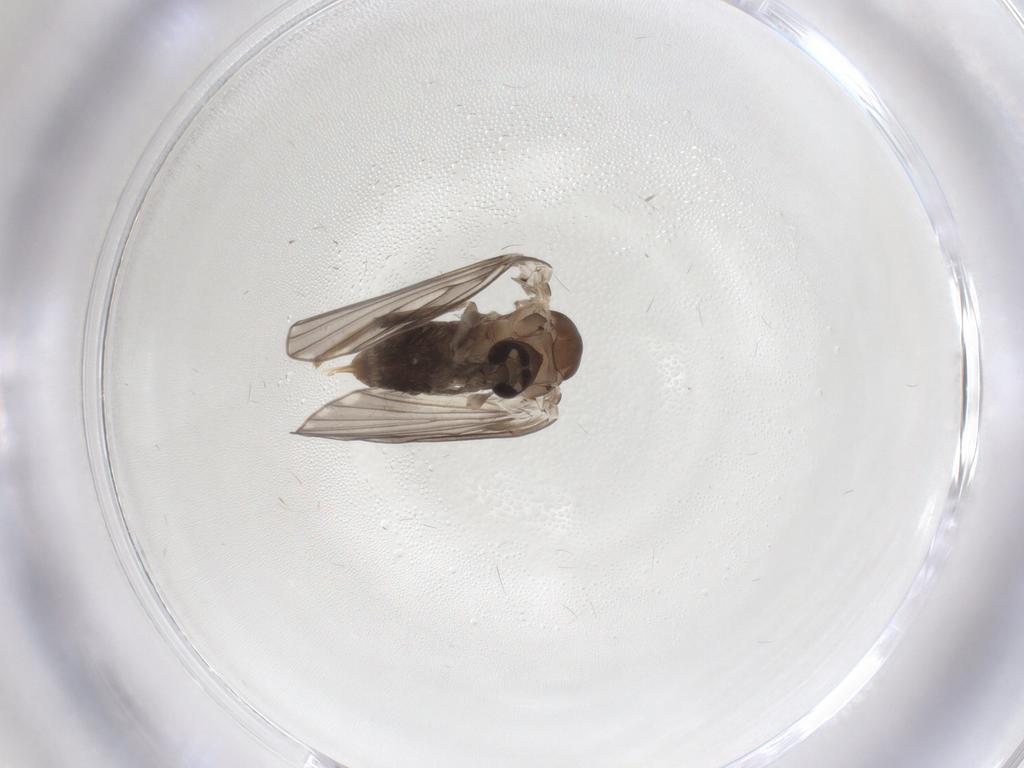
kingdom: Animalia
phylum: Arthropoda
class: Insecta
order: Diptera
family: Psychodidae
